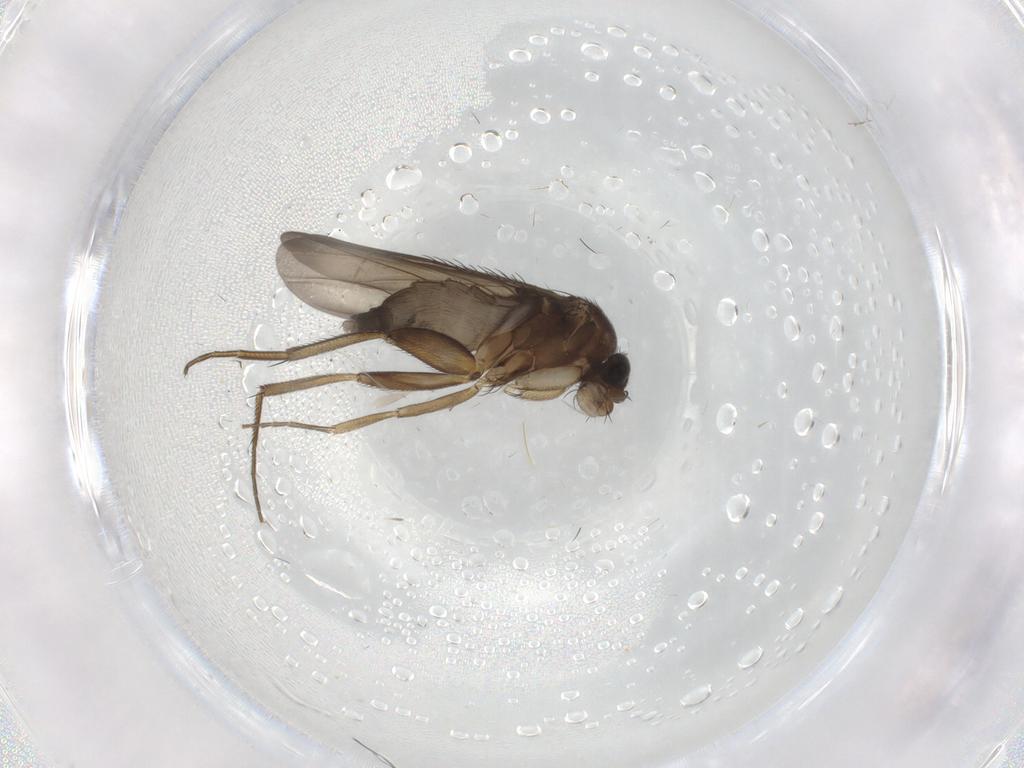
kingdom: Animalia
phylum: Arthropoda
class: Insecta
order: Diptera
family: Phoridae
